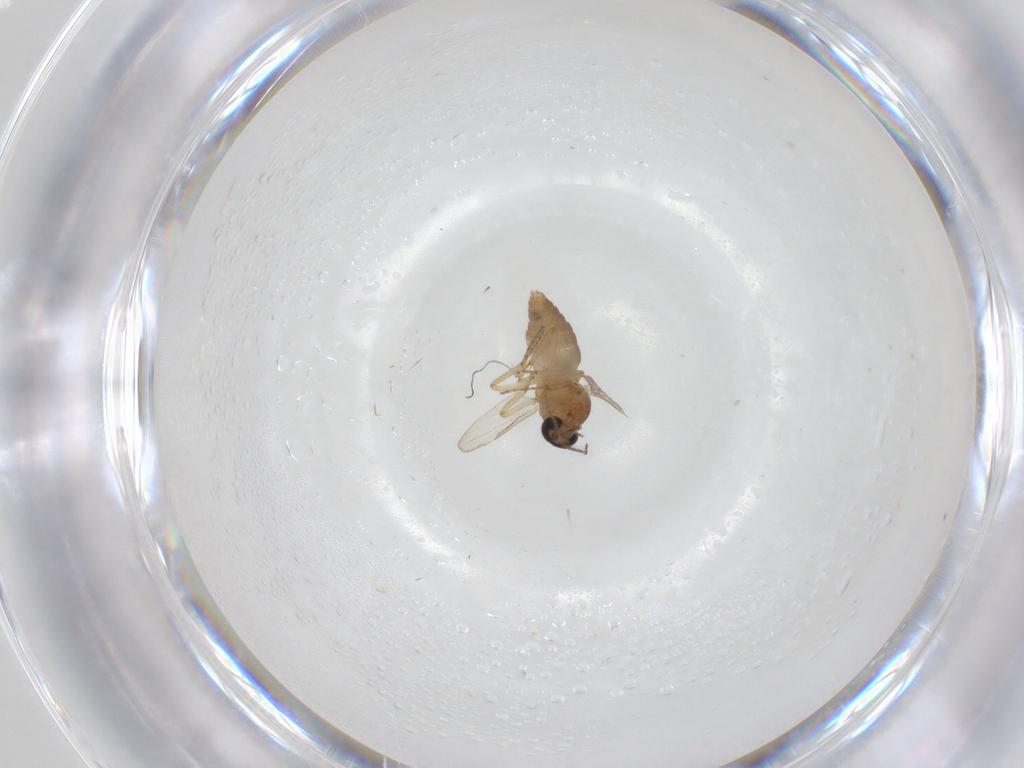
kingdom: Animalia
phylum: Arthropoda
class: Insecta
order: Diptera
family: Ceratopogonidae
